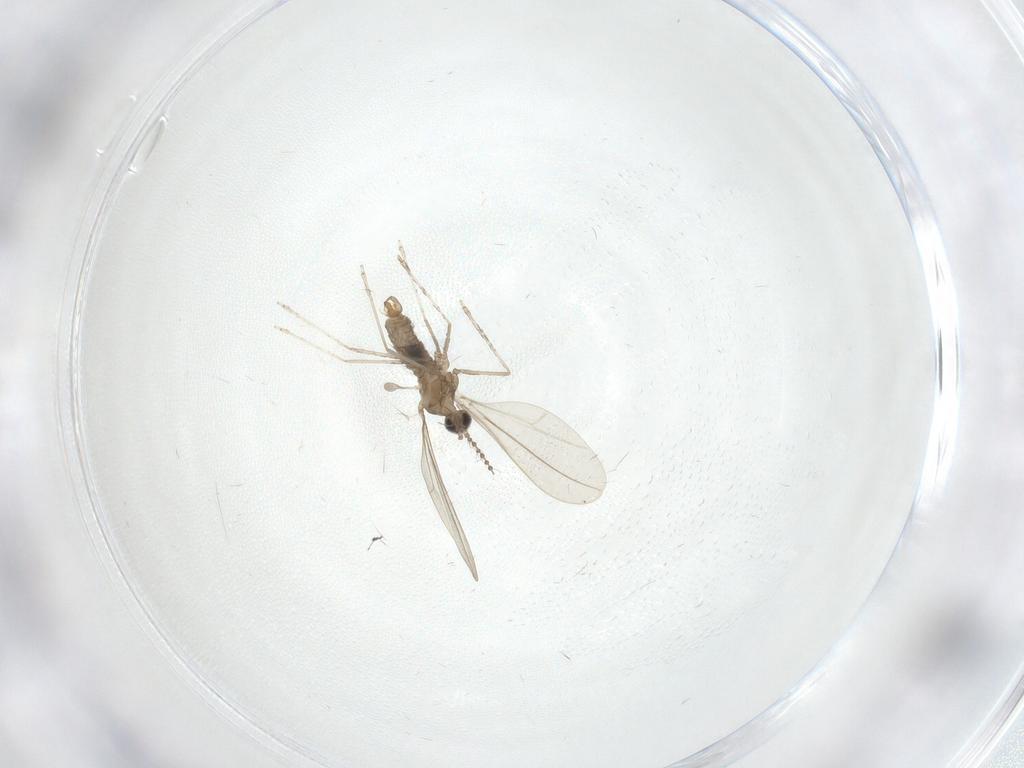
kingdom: Animalia
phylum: Arthropoda
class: Insecta
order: Diptera
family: Cecidomyiidae
